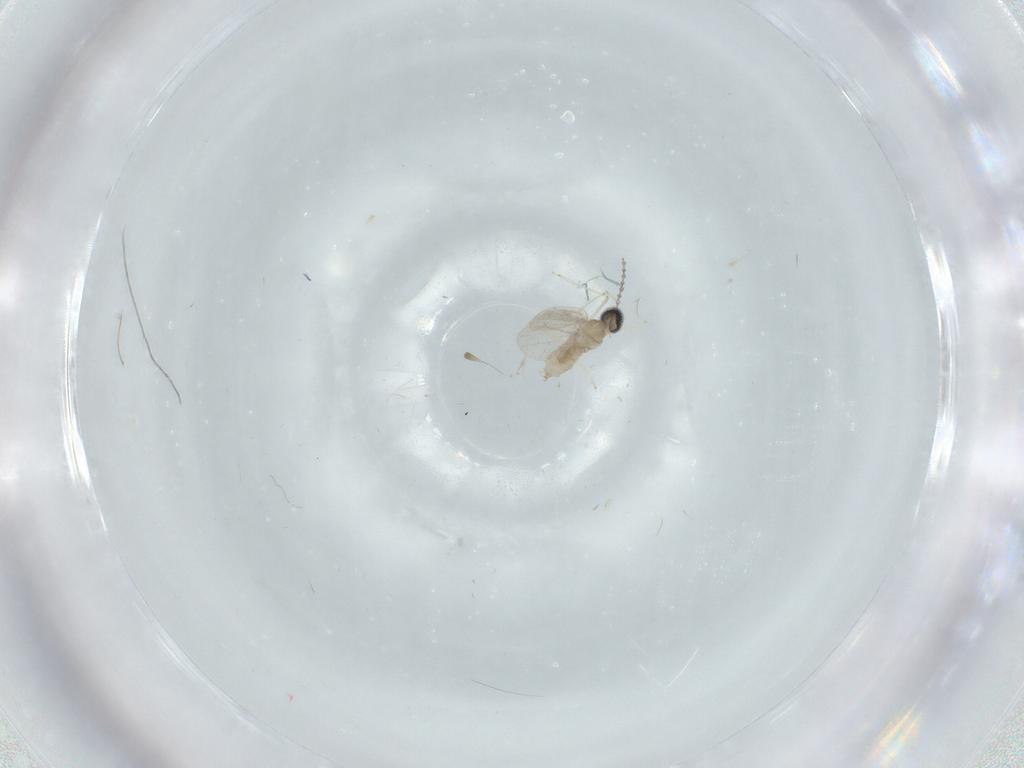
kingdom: Animalia
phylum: Arthropoda
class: Insecta
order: Diptera
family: Cecidomyiidae
